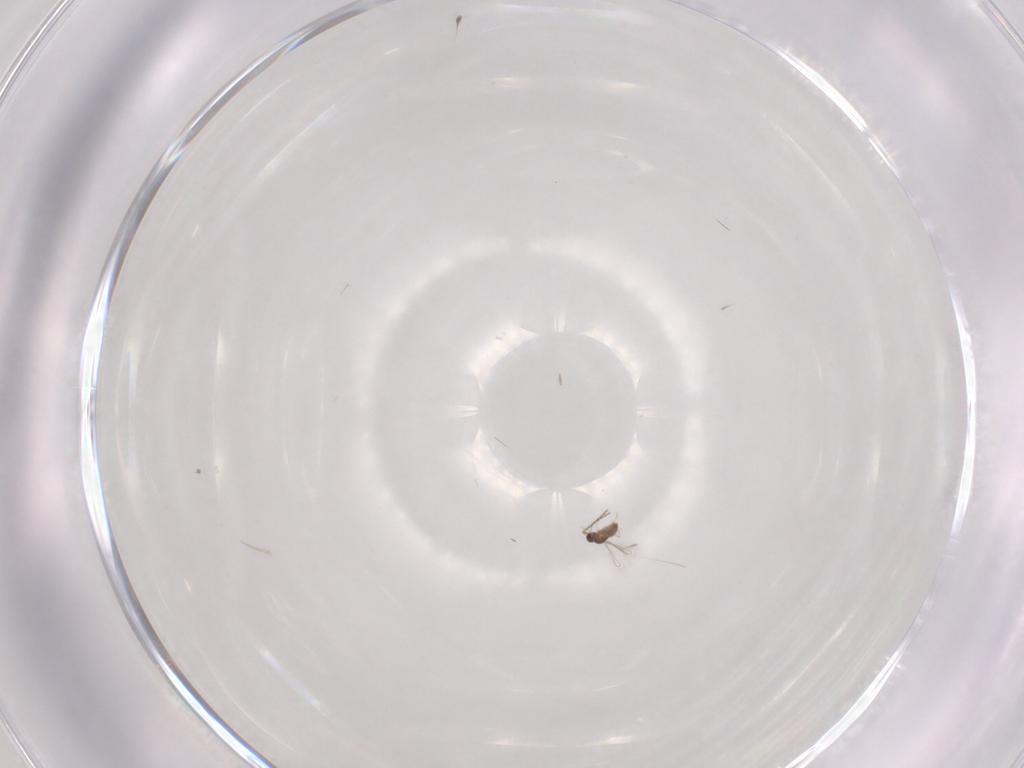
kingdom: Animalia
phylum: Arthropoda
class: Insecta
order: Hymenoptera
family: Mymaridae
